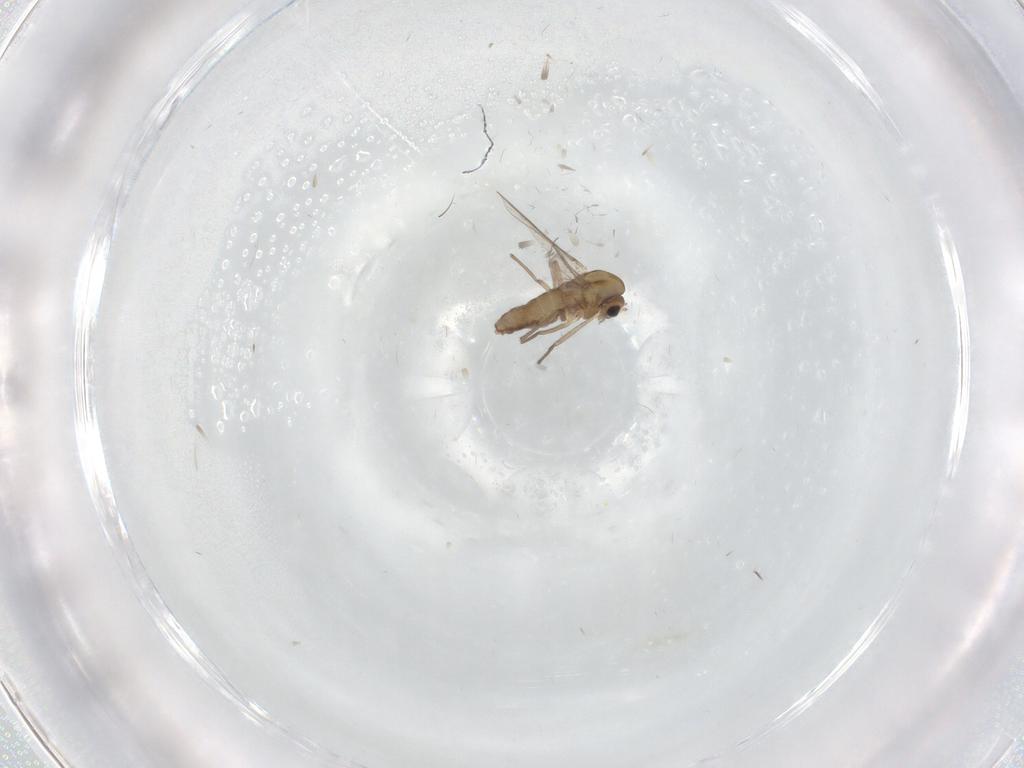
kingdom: Animalia
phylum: Arthropoda
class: Insecta
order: Diptera
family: Chironomidae
